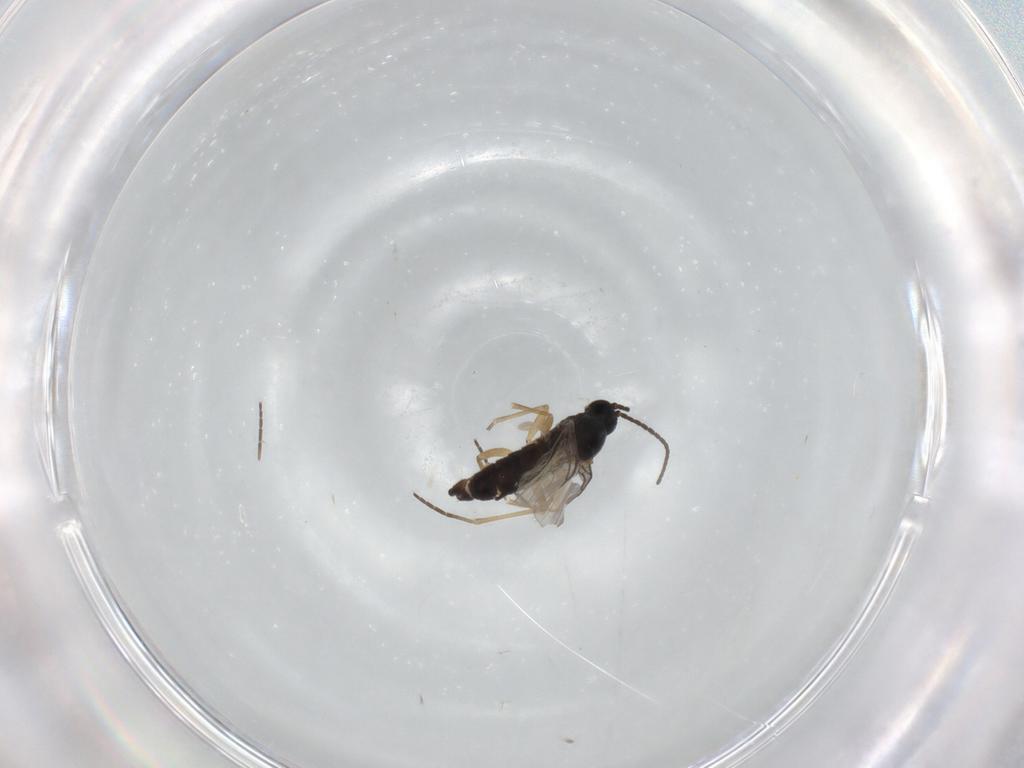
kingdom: Animalia
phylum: Arthropoda
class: Insecta
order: Diptera
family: Sciaridae
